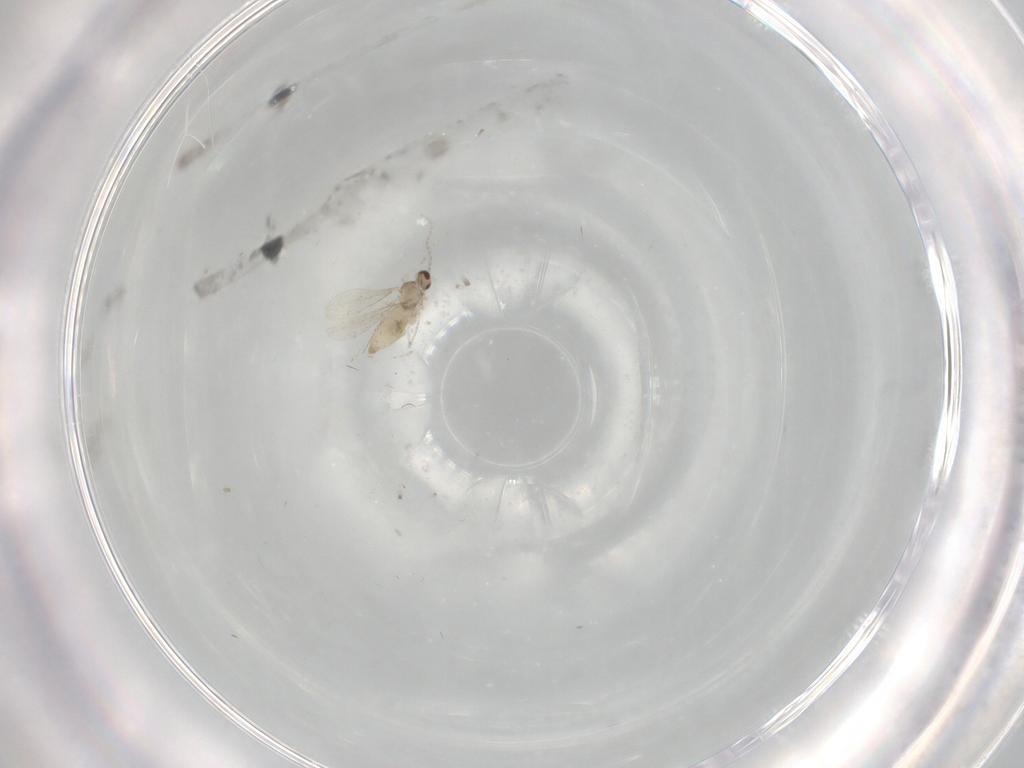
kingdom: Animalia
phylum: Arthropoda
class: Insecta
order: Diptera
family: Cecidomyiidae
